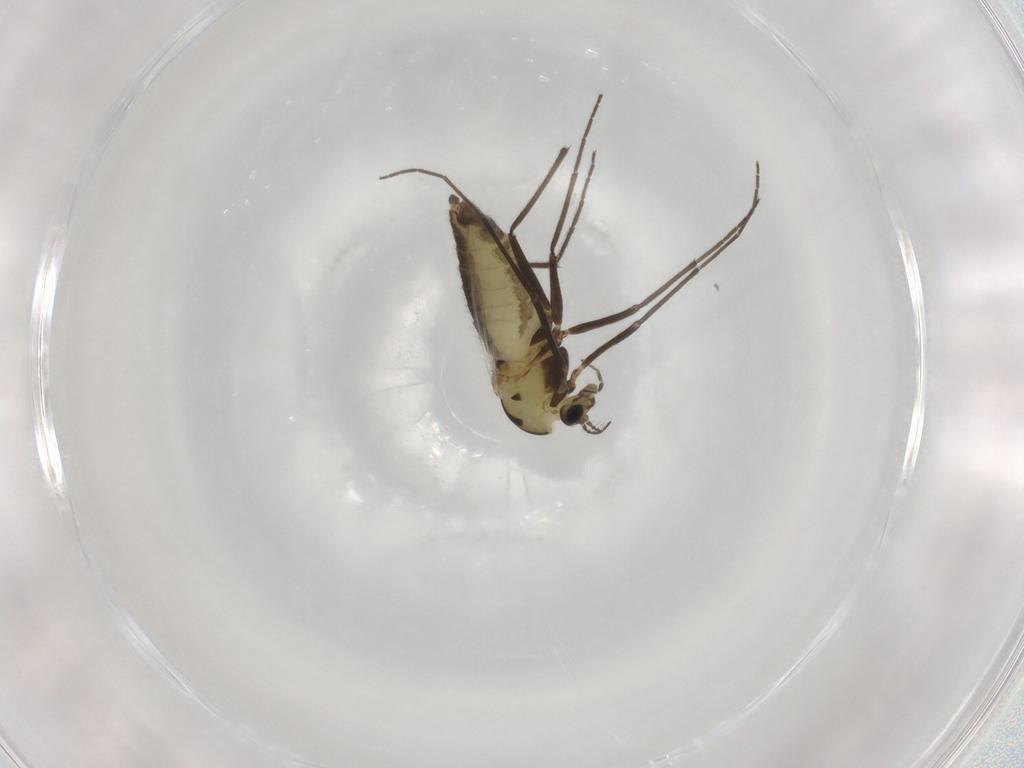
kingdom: Animalia
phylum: Arthropoda
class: Insecta
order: Diptera
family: Chironomidae
